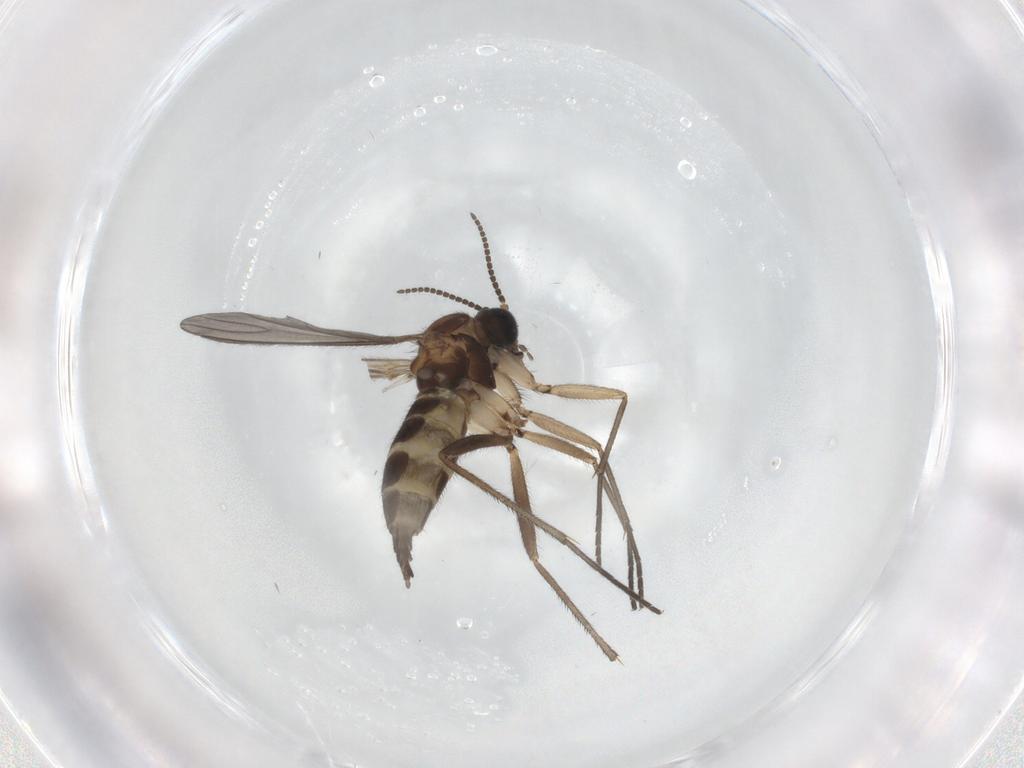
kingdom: Animalia
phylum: Arthropoda
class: Insecta
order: Diptera
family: Sciaridae
